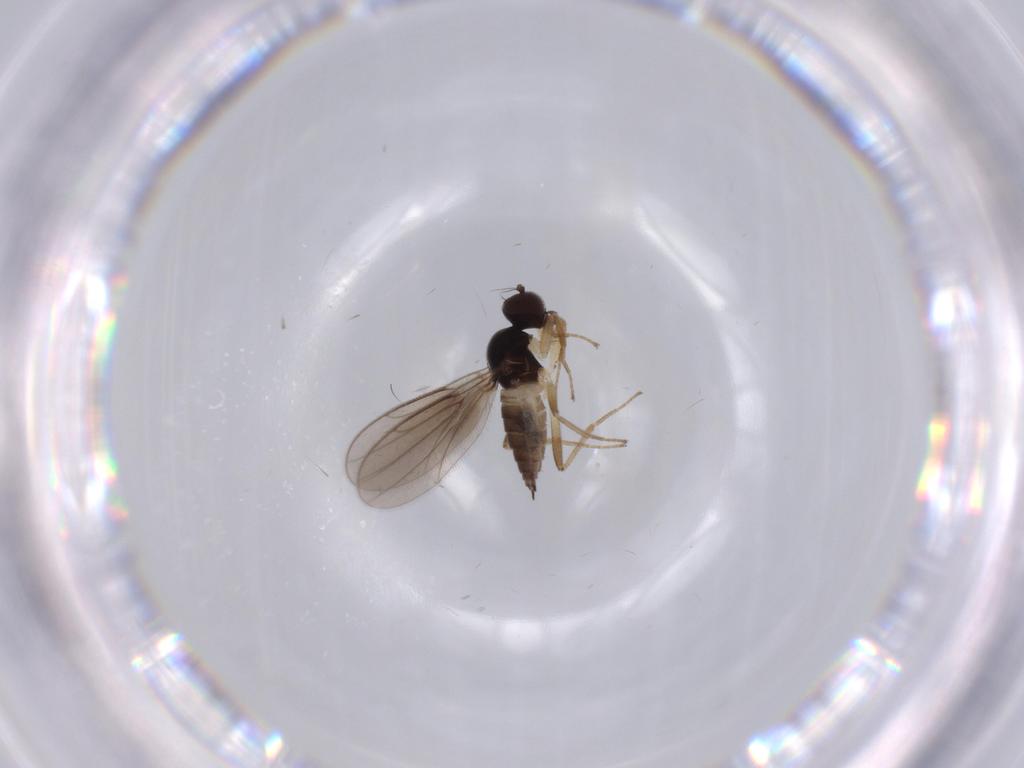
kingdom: Animalia
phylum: Arthropoda
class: Insecta
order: Diptera
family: Hybotidae
